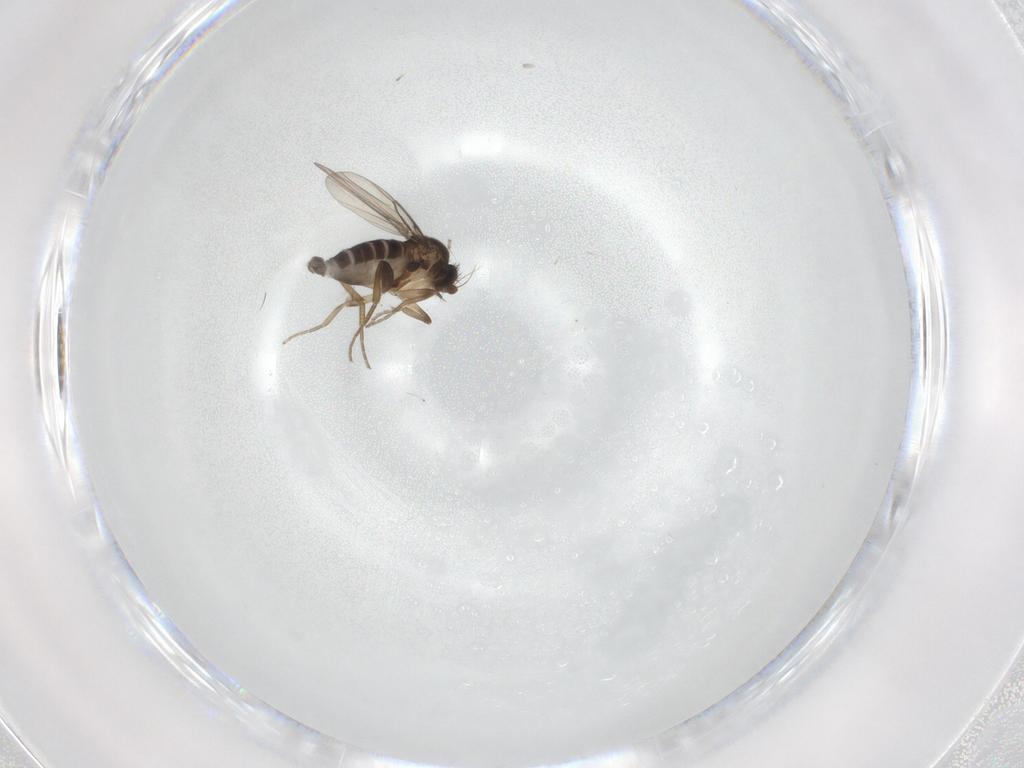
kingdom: Animalia
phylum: Arthropoda
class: Insecta
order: Diptera
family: Phoridae
